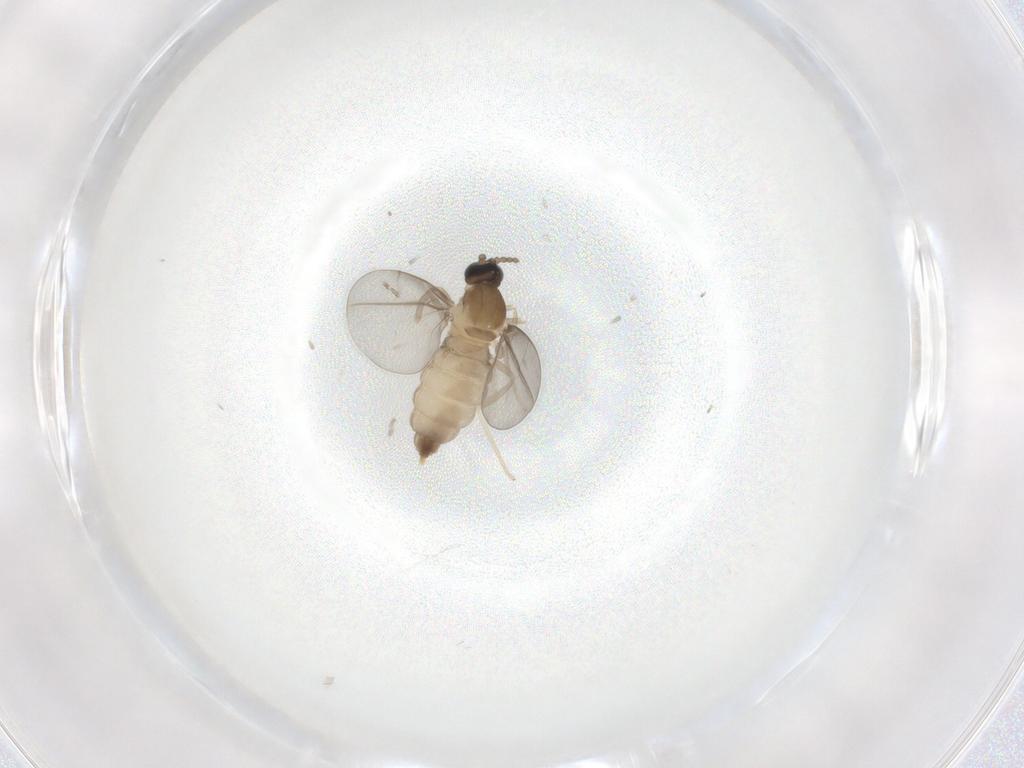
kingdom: Animalia
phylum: Arthropoda
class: Insecta
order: Diptera
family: Cecidomyiidae
